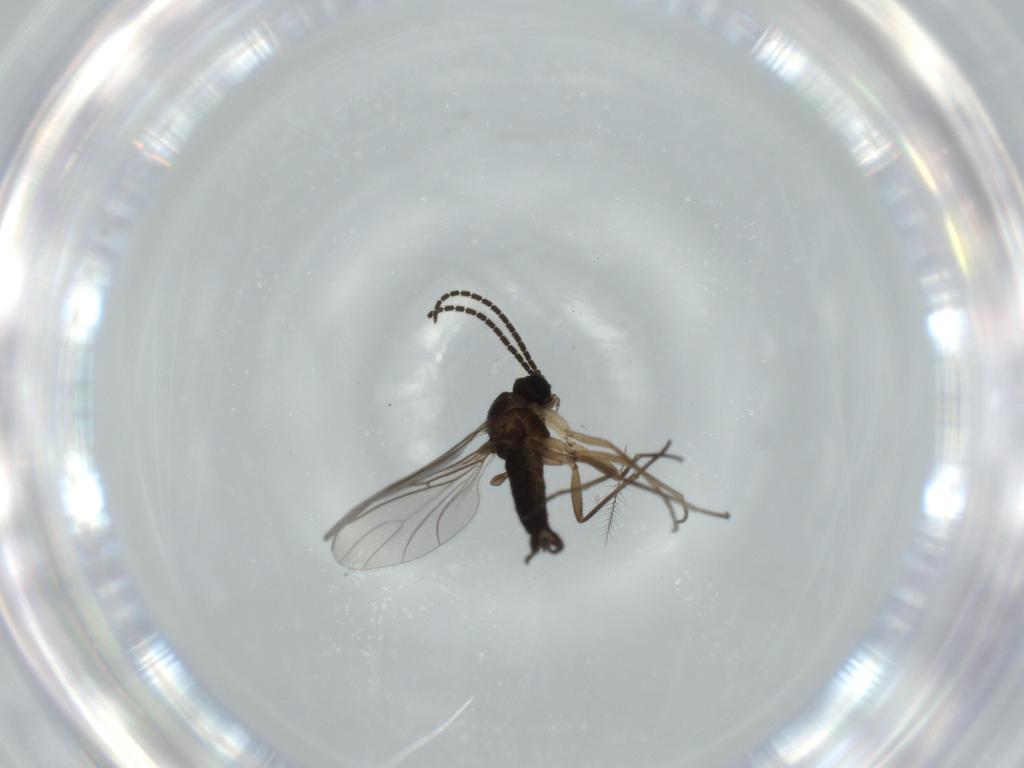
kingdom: Animalia
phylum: Arthropoda
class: Insecta
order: Diptera
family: Sciaridae
